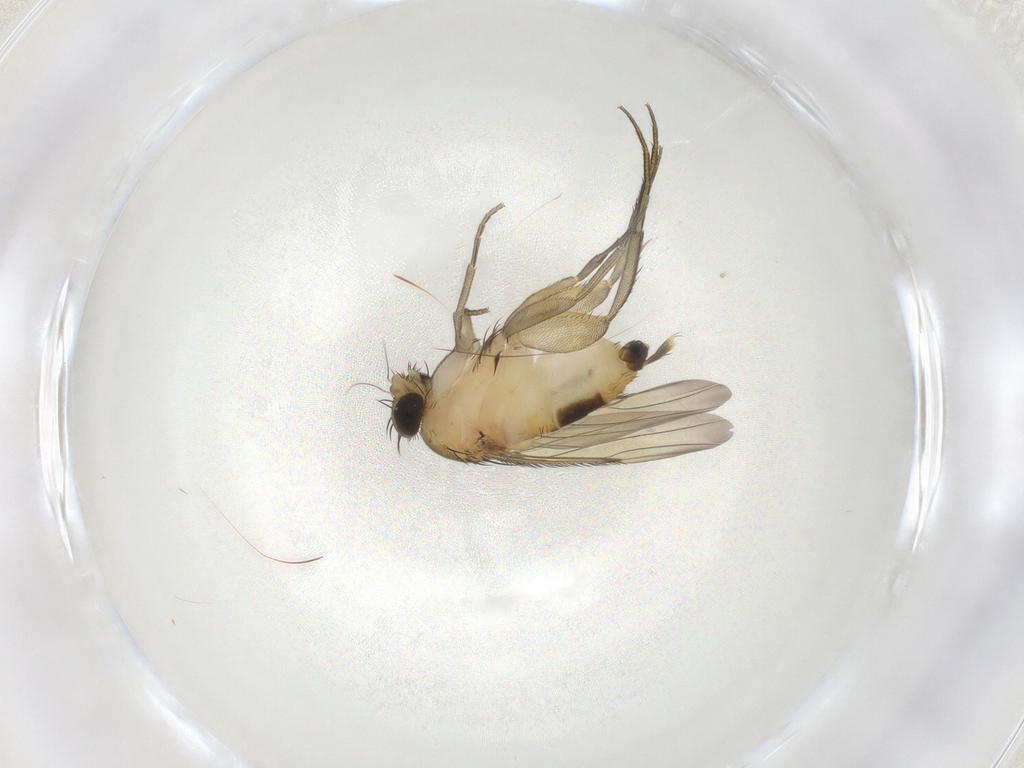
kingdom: Animalia
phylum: Arthropoda
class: Insecta
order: Diptera
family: Phoridae
